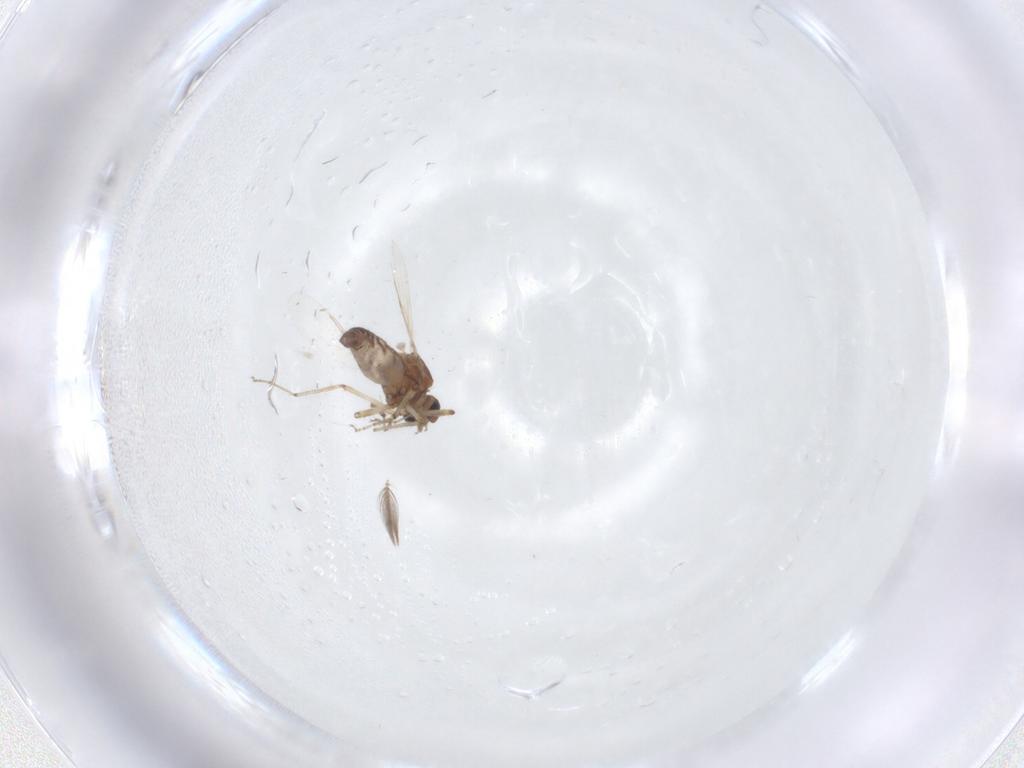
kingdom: Animalia
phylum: Arthropoda
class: Insecta
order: Diptera
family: Ceratopogonidae
